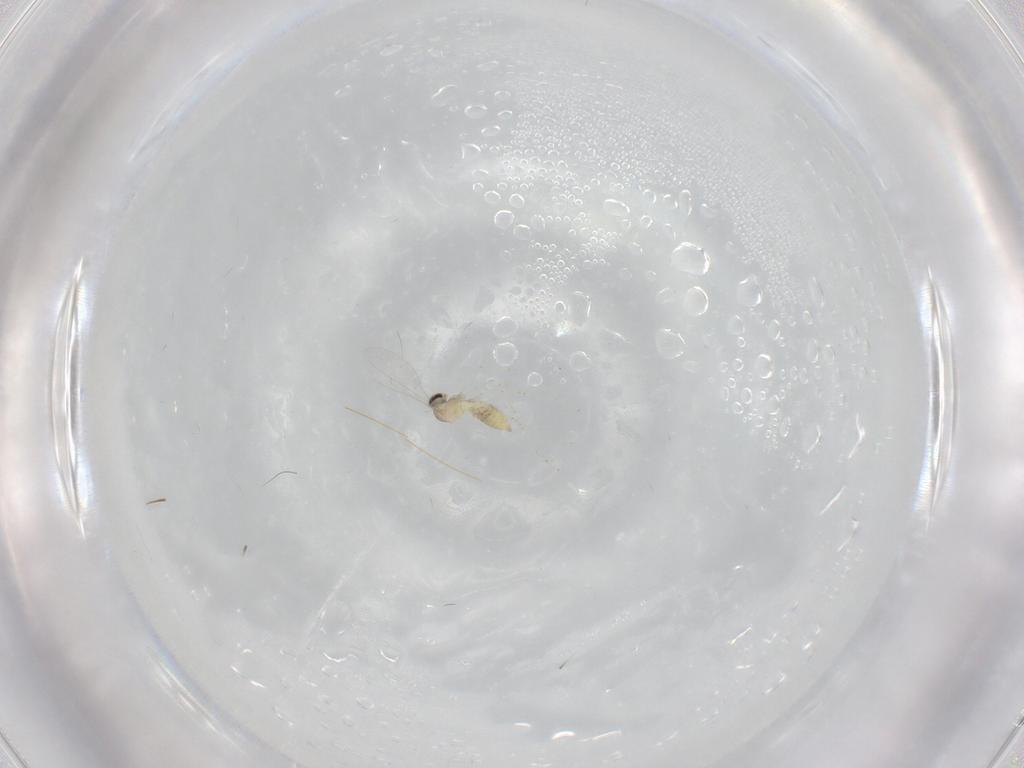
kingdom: Animalia
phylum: Arthropoda
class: Insecta
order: Diptera
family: Cecidomyiidae
